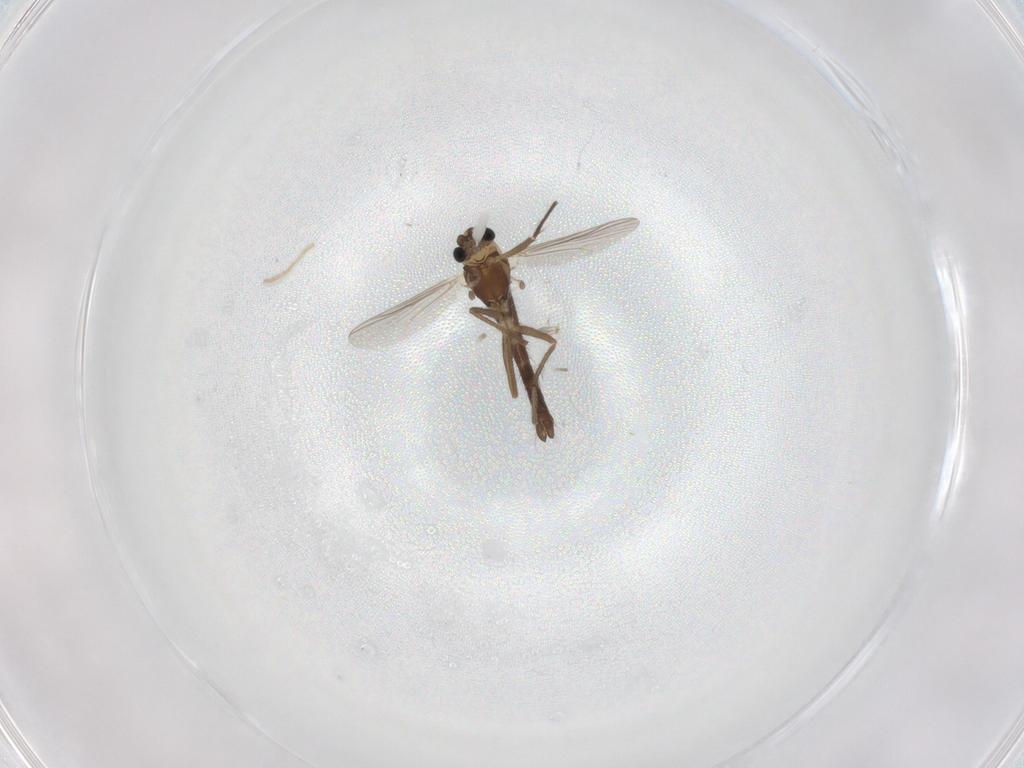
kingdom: Animalia
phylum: Arthropoda
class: Insecta
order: Diptera
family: Chironomidae
